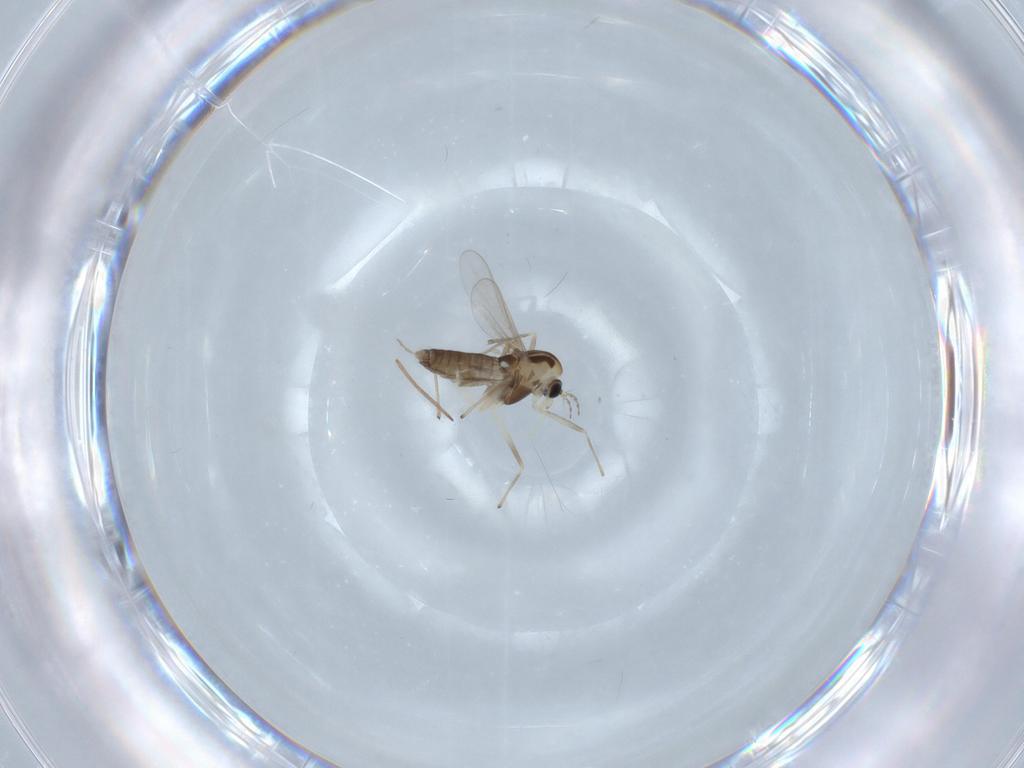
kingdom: Animalia
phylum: Arthropoda
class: Insecta
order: Diptera
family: Chironomidae
